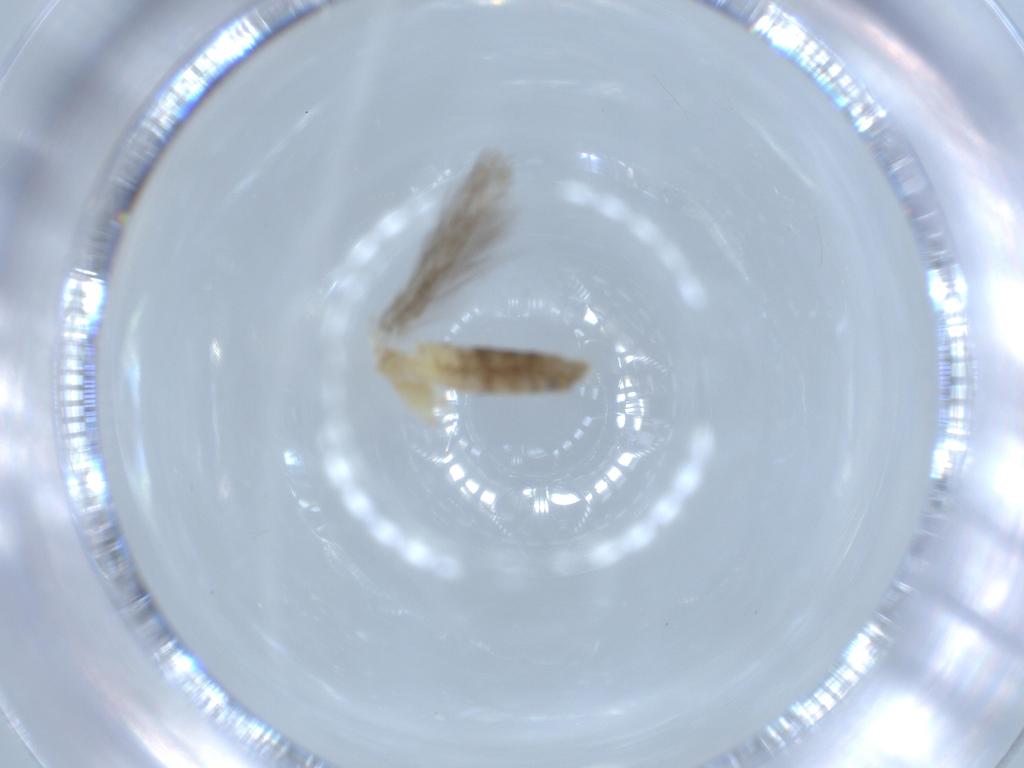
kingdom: Animalia
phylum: Arthropoda
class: Insecta
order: Lepidoptera
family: Gracillariidae
